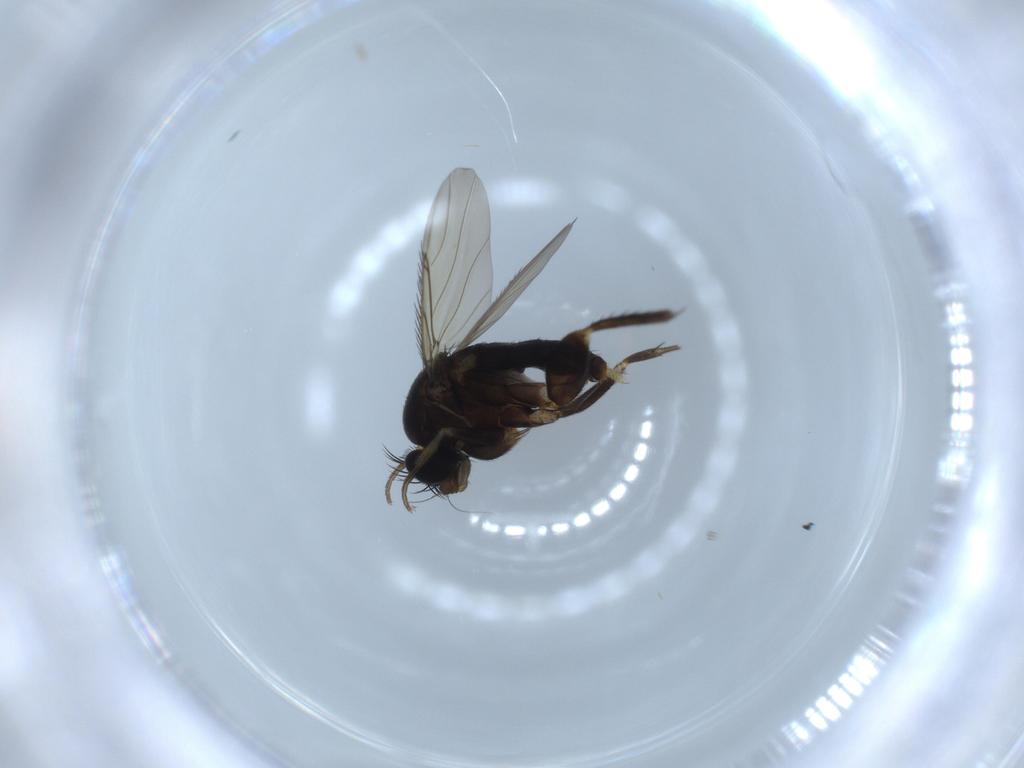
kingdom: Animalia
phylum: Arthropoda
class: Insecta
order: Diptera
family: Phoridae
